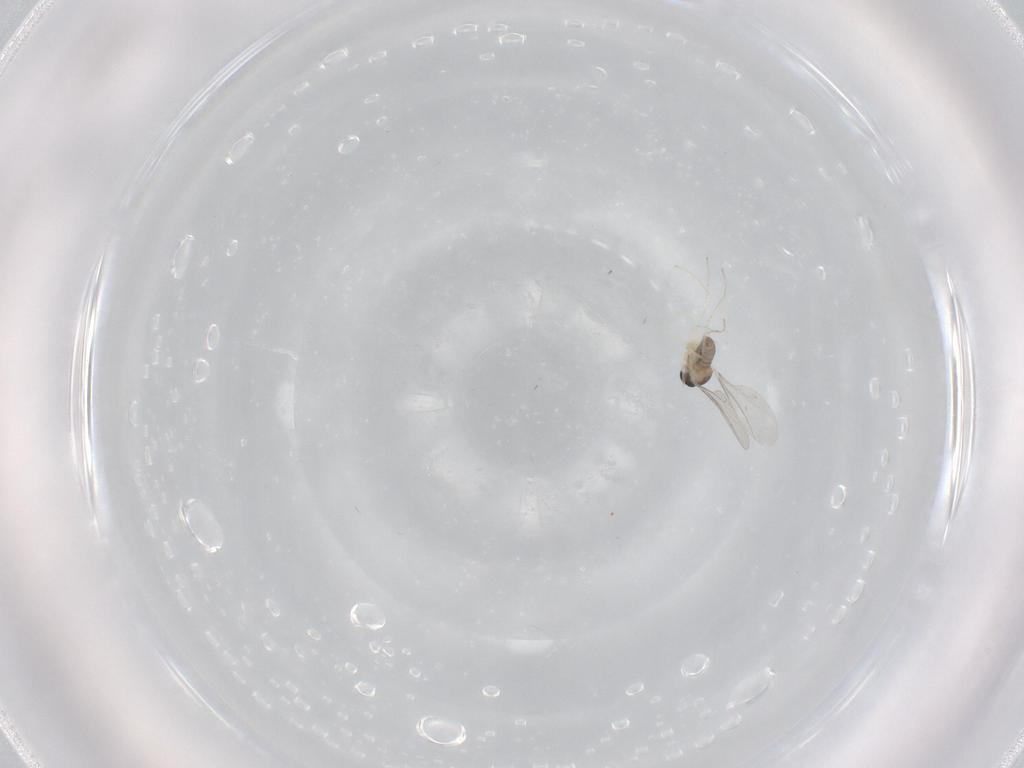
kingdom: Animalia
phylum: Arthropoda
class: Insecta
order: Diptera
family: Cecidomyiidae
